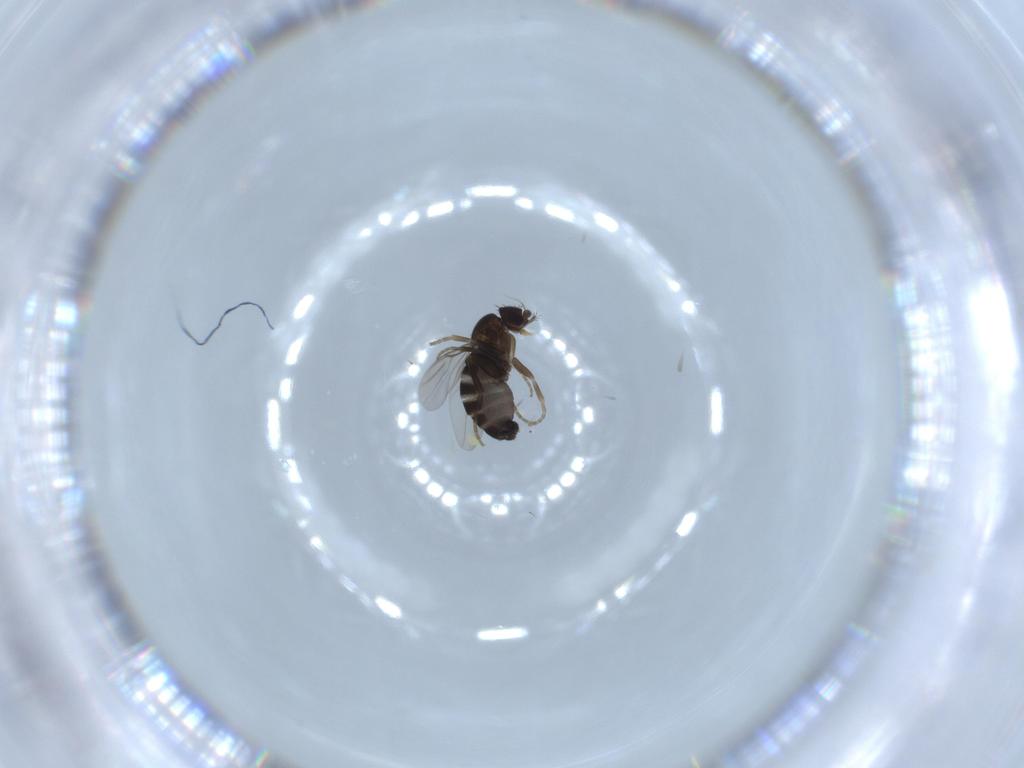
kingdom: Animalia
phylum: Arthropoda
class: Insecta
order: Diptera
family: Phoridae
